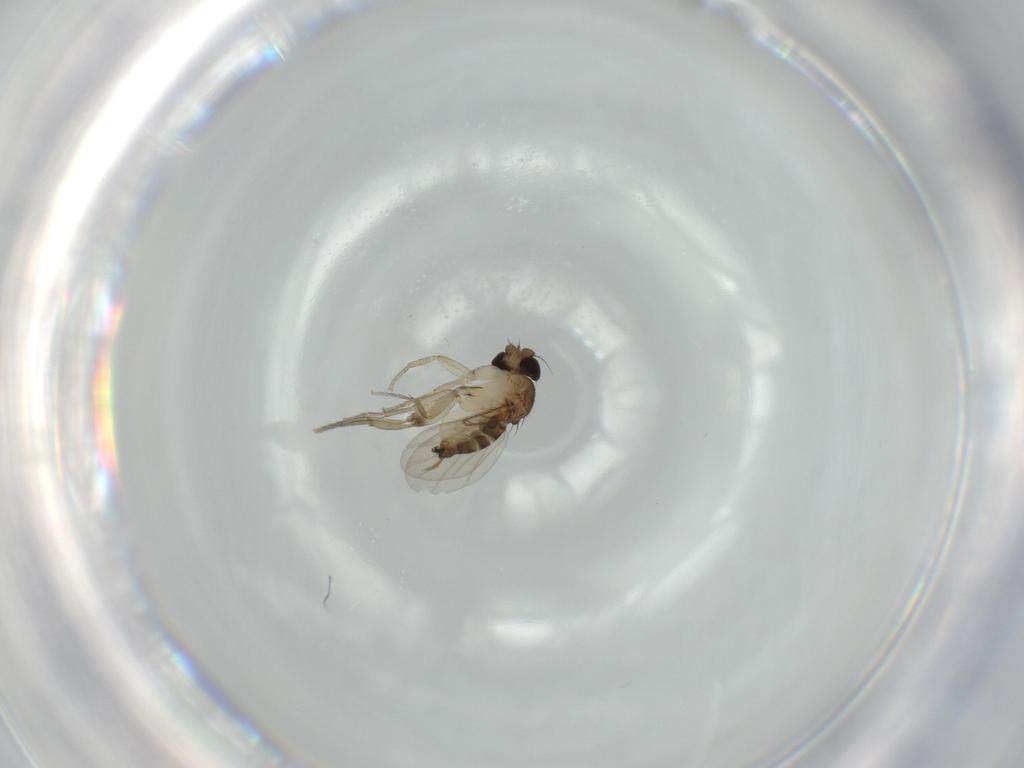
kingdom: Animalia
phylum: Arthropoda
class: Insecta
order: Diptera
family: Phoridae
